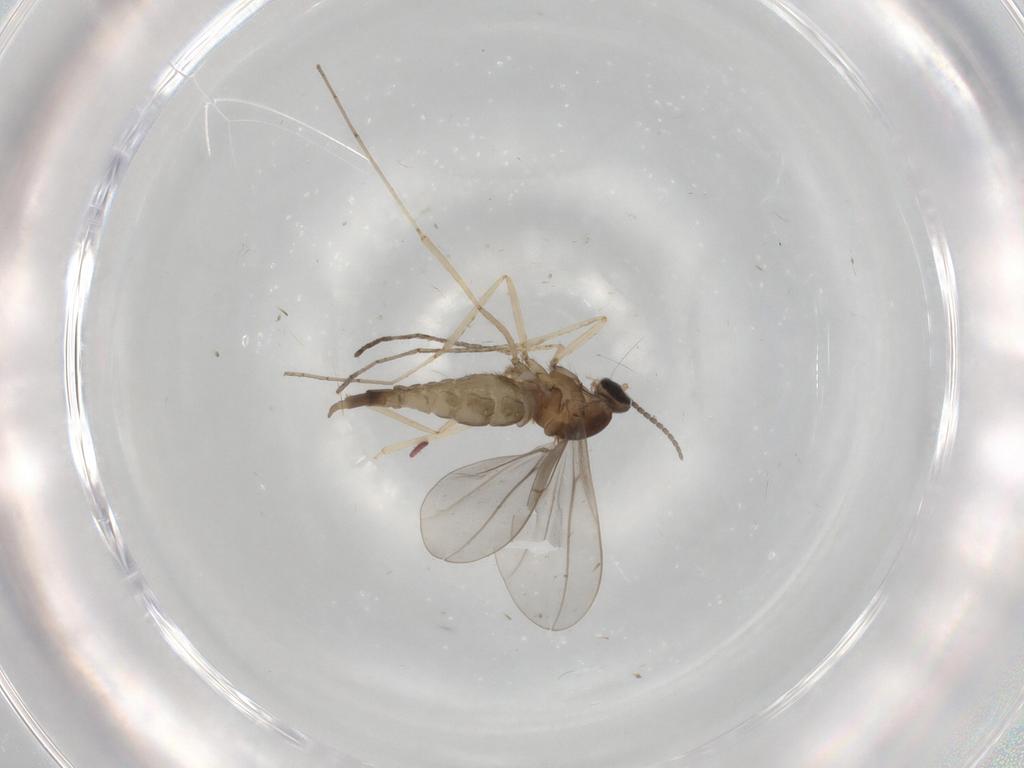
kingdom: Animalia
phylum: Arthropoda
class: Insecta
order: Diptera
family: Cecidomyiidae
